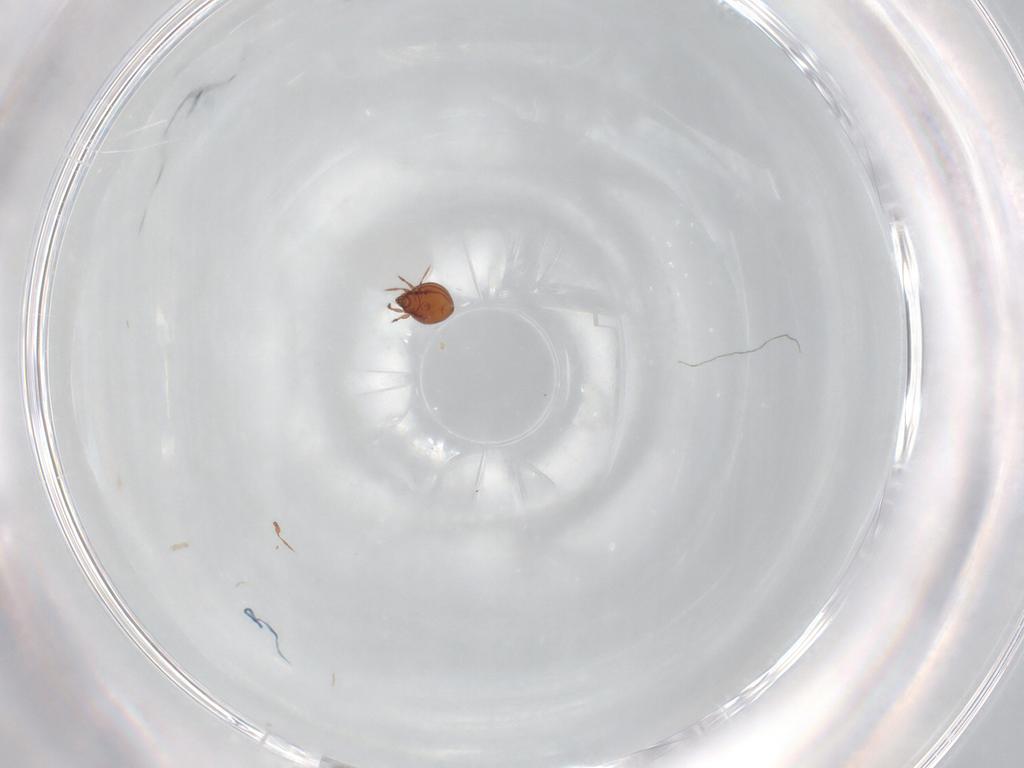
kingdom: Animalia
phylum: Arthropoda
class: Arachnida
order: Trombidiformes
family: Bdellidae
